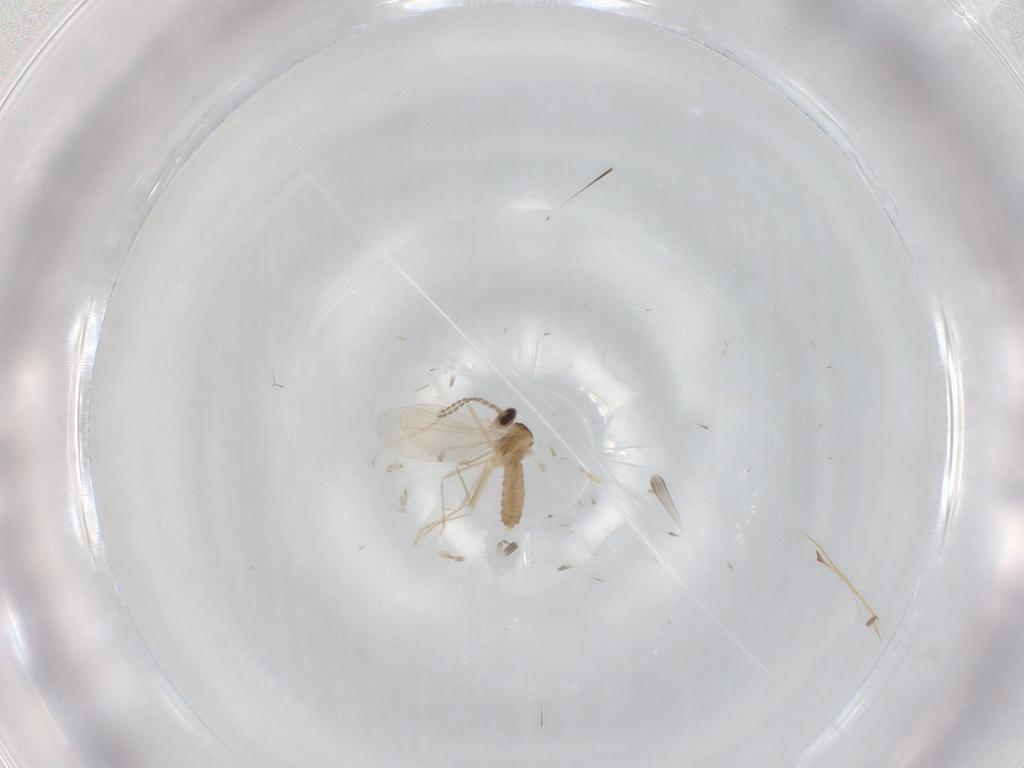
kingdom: Animalia
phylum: Arthropoda
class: Insecta
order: Diptera
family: Cecidomyiidae
